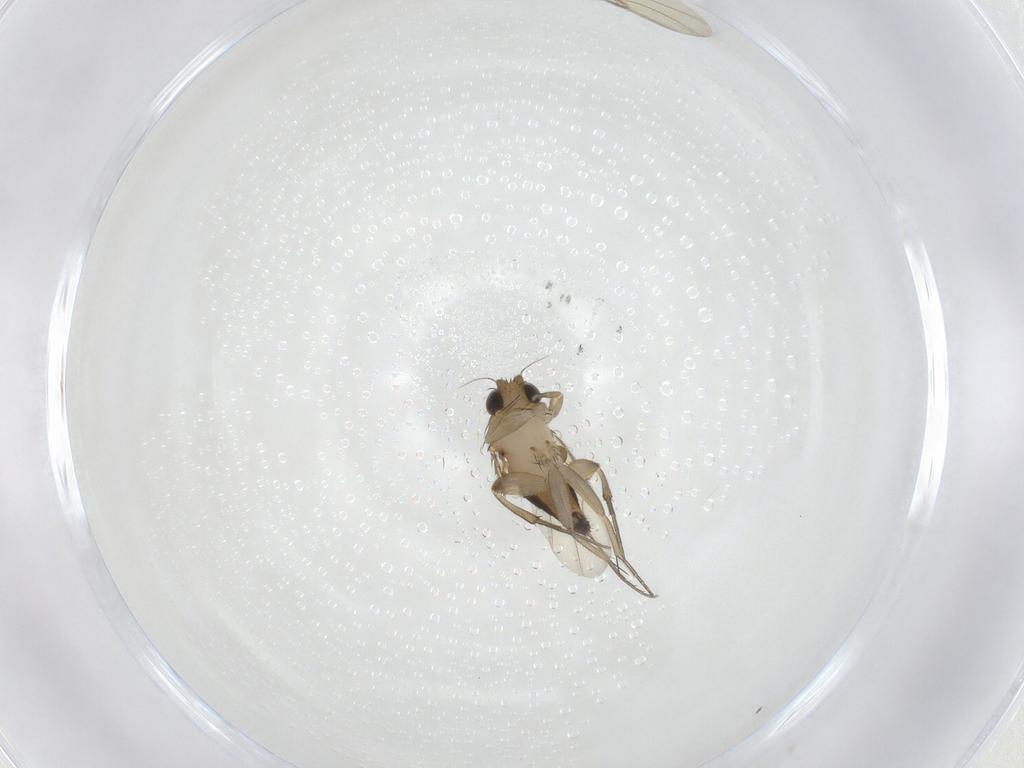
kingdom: Animalia
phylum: Arthropoda
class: Insecta
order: Diptera
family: Phoridae
